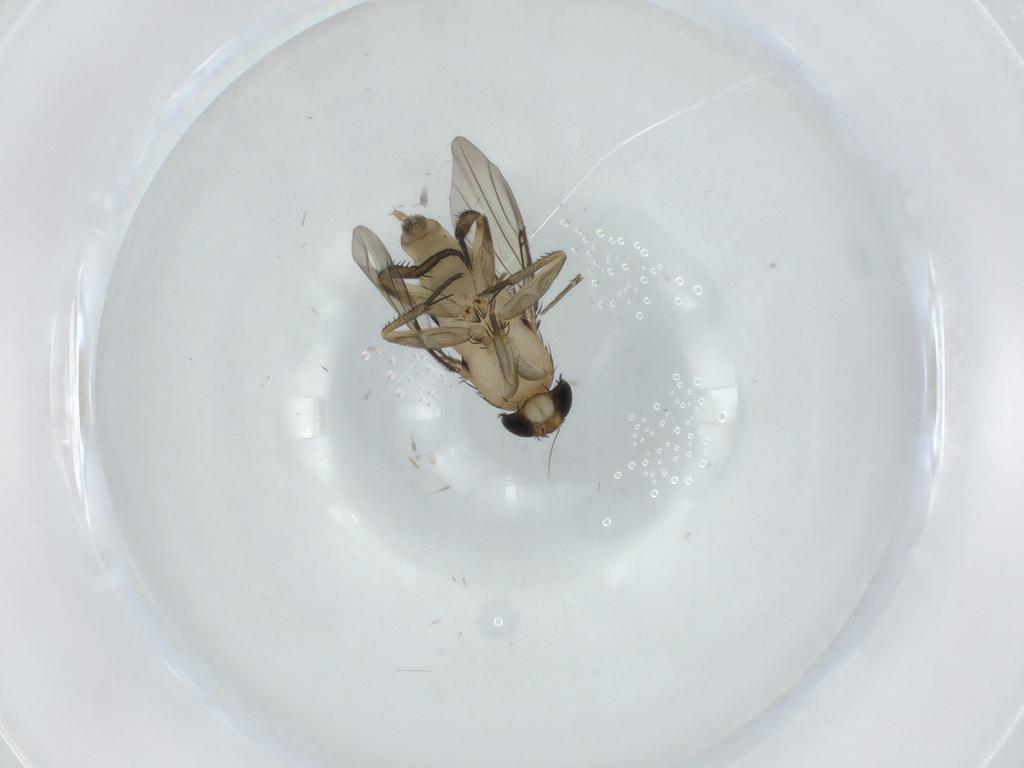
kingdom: Animalia
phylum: Arthropoda
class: Insecta
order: Diptera
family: Phoridae
